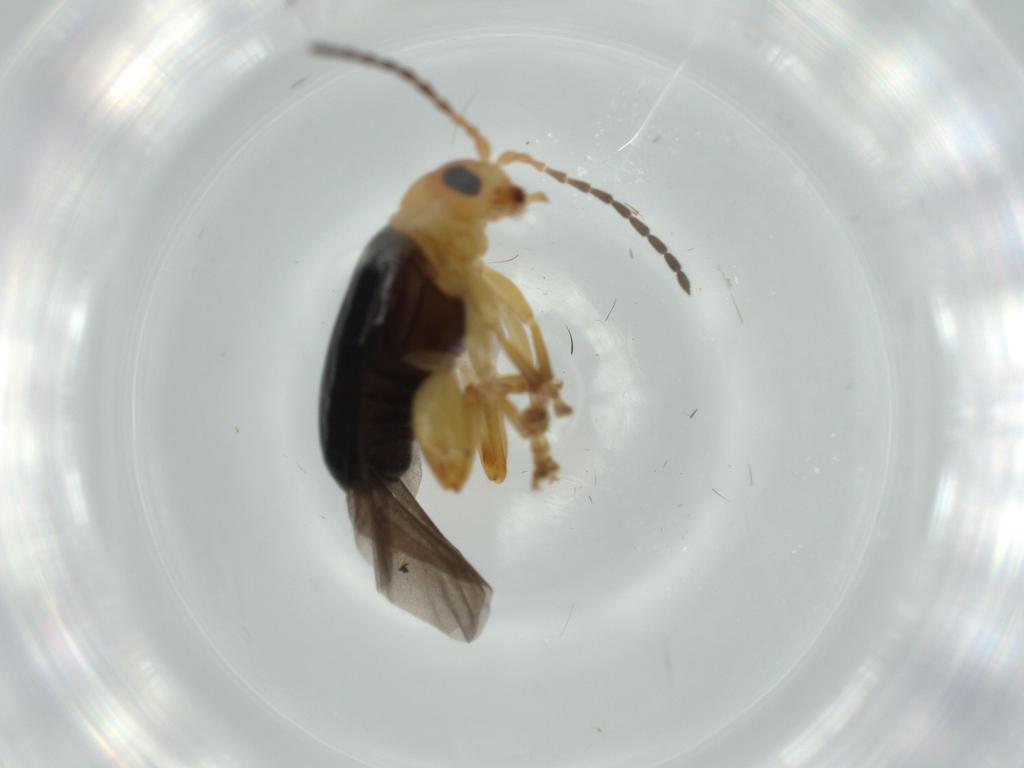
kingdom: Animalia
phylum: Arthropoda
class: Insecta
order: Coleoptera
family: Chrysomelidae
